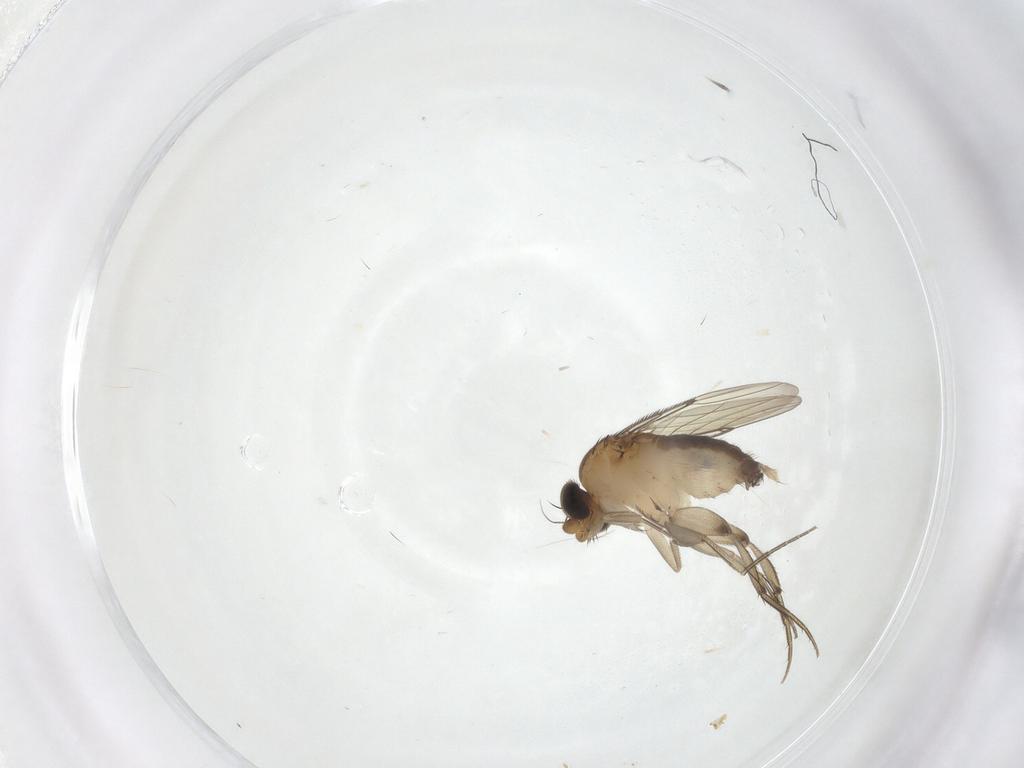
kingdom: Animalia
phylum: Arthropoda
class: Insecta
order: Diptera
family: Phoridae
